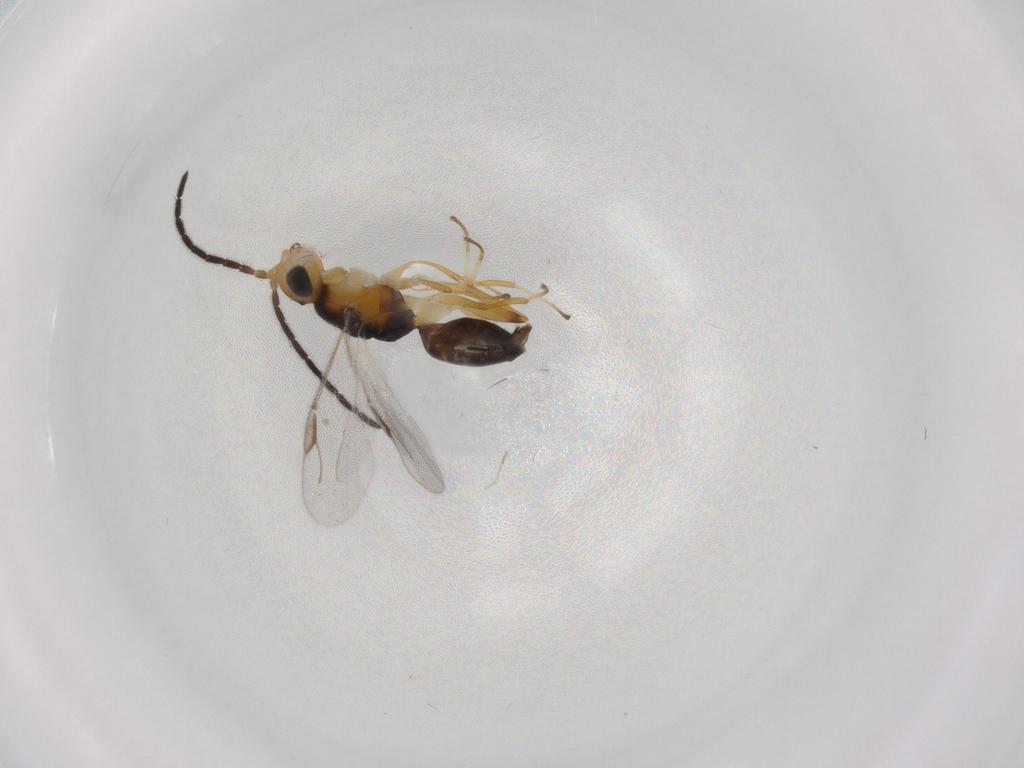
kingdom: Animalia
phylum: Arthropoda
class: Insecta
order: Hymenoptera
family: Dryinidae
